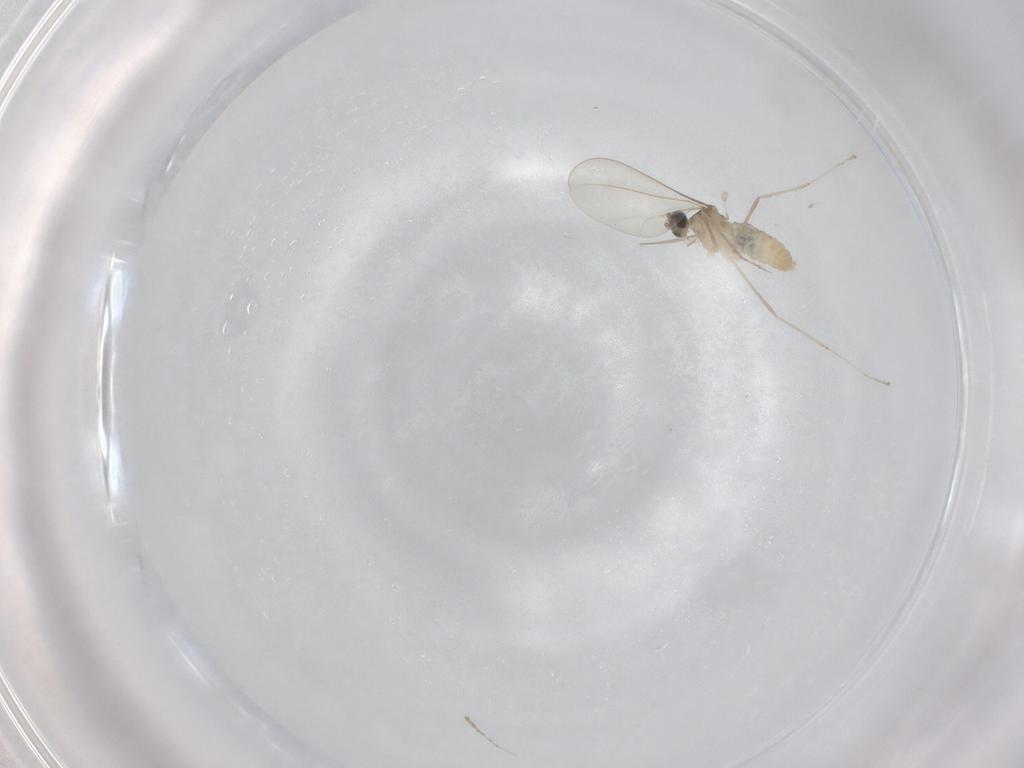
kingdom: Animalia
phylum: Arthropoda
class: Insecta
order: Diptera
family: Cecidomyiidae
